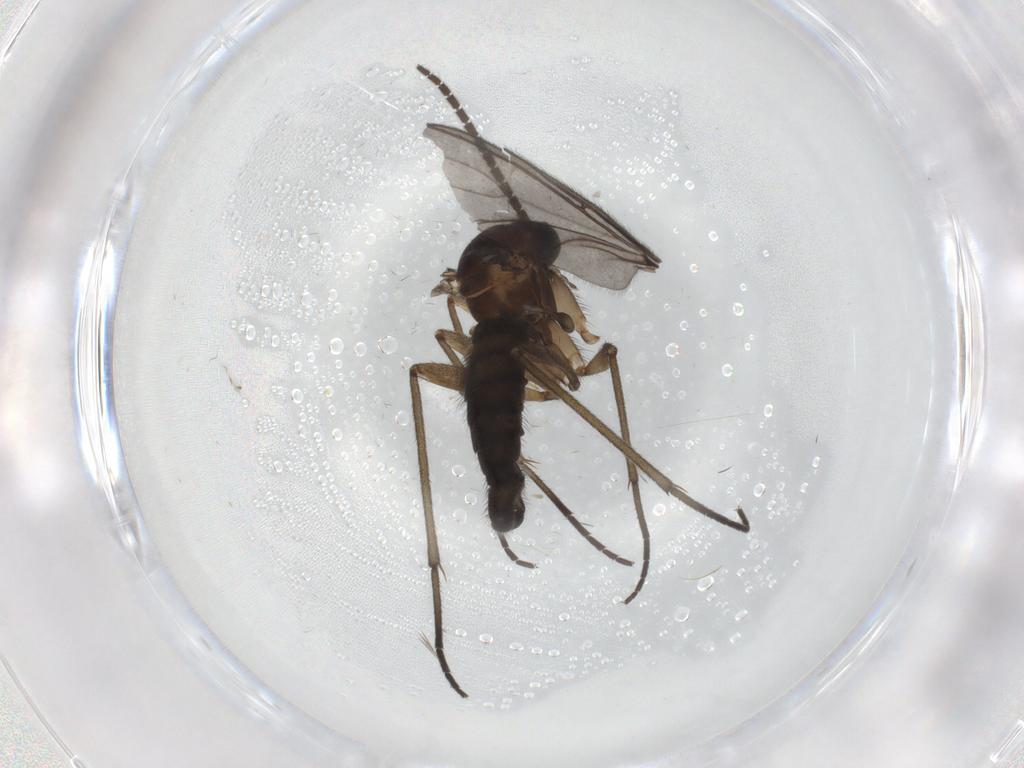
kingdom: Animalia
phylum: Arthropoda
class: Insecta
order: Diptera
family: Sciaridae
